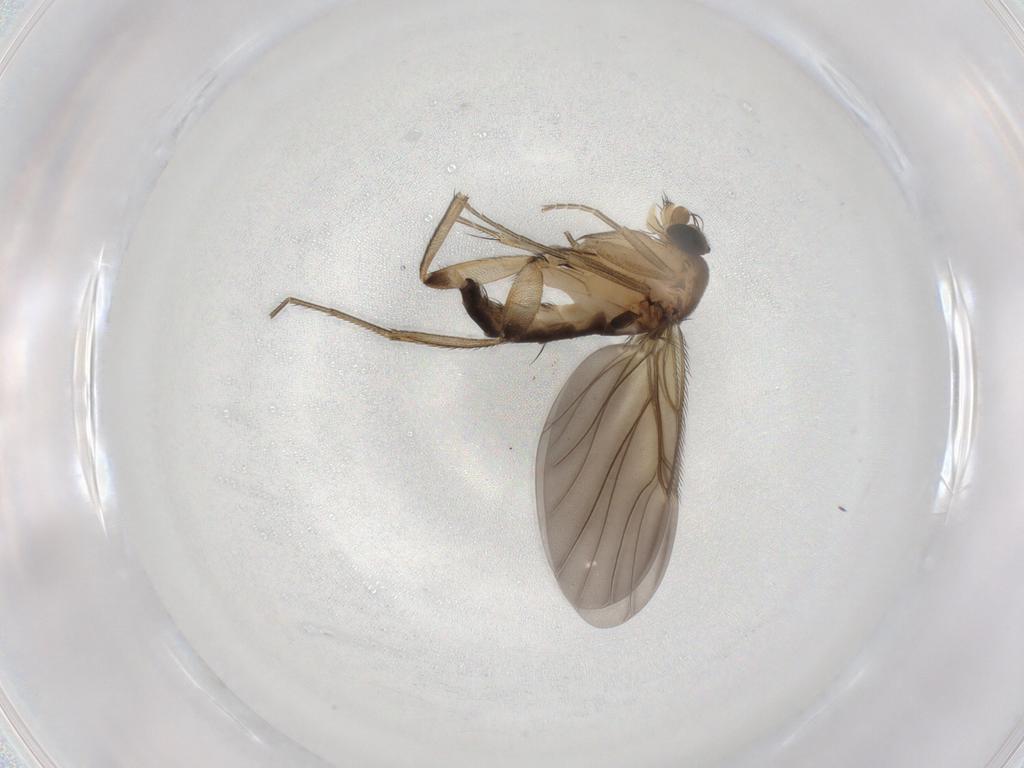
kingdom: Animalia
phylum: Arthropoda
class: Insecta
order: Diptera
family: Phoridae
